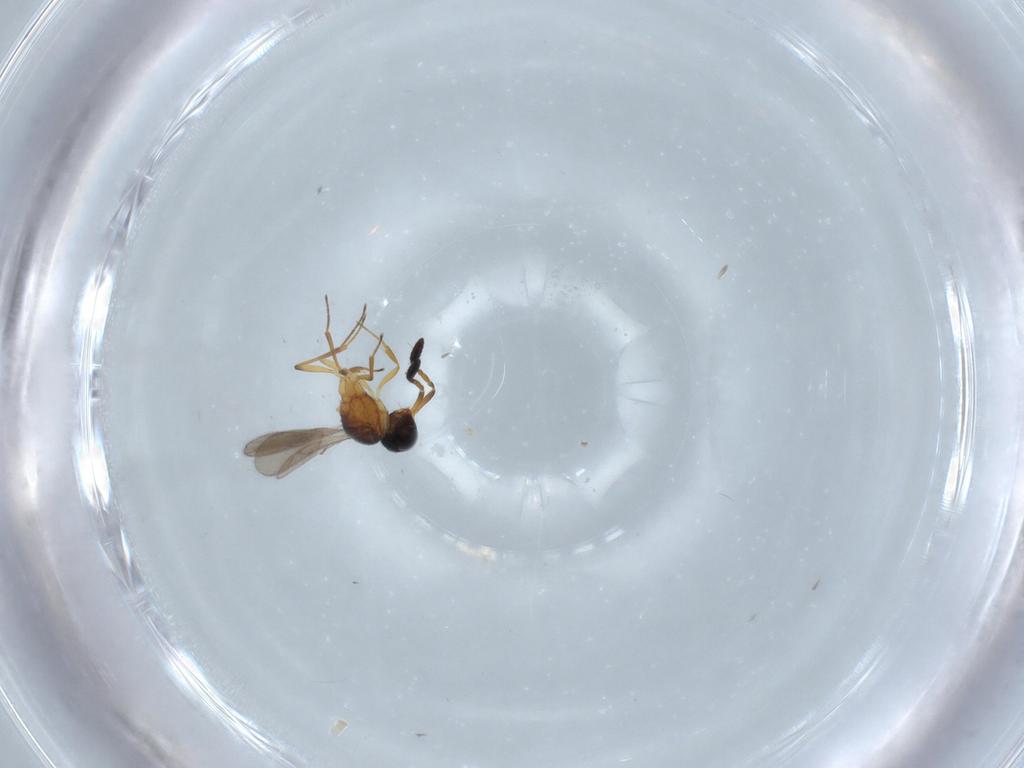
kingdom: Animalia
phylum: Arthropoda
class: Insecta
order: Hymenoptera
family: Scelionidae
